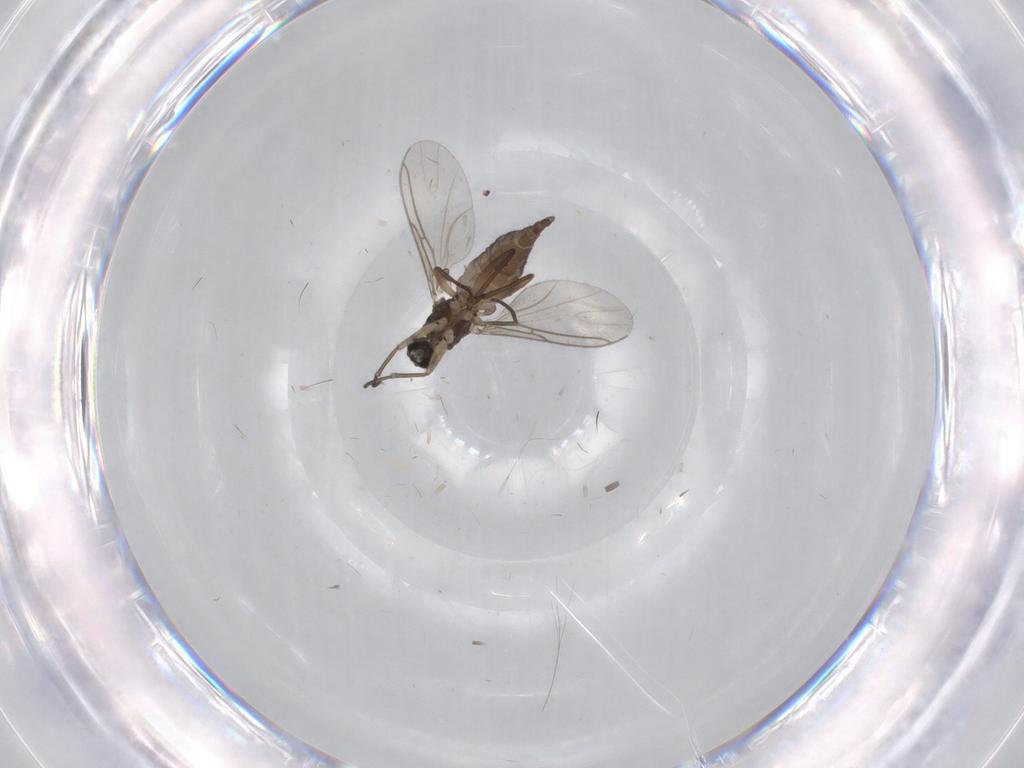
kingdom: Animalia
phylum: Arthropoda
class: Insecta
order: Diptera
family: Sciaridae
